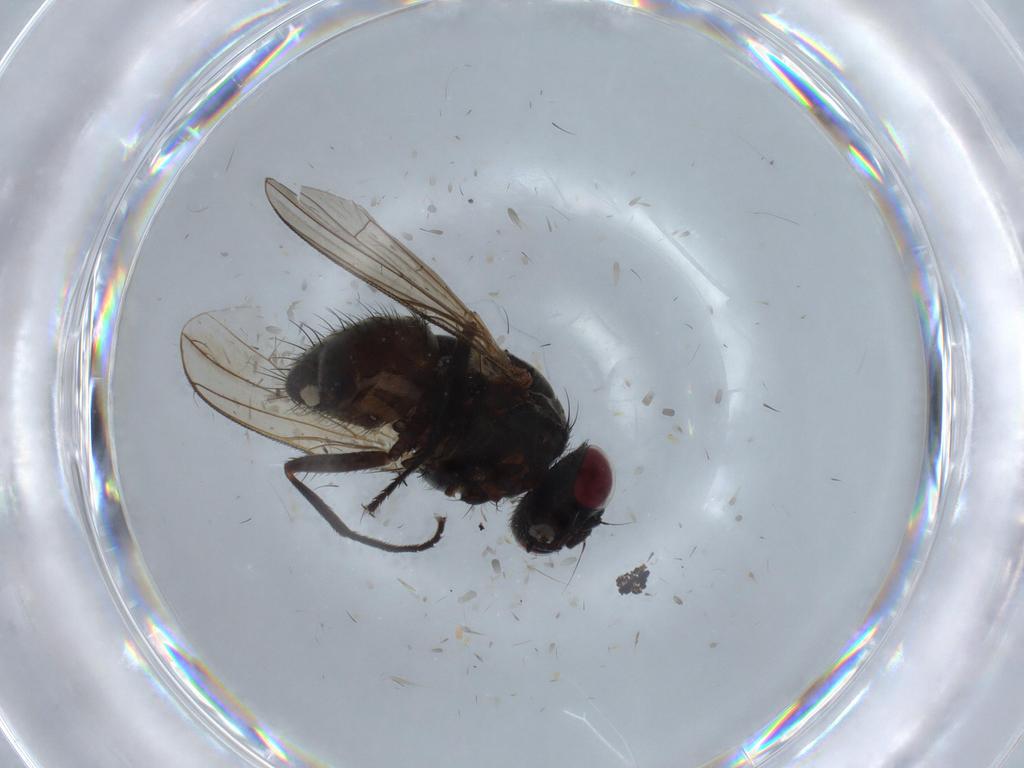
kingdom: Animalia
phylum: Arthropoda
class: Insecta
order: Diptera
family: Muscidae
